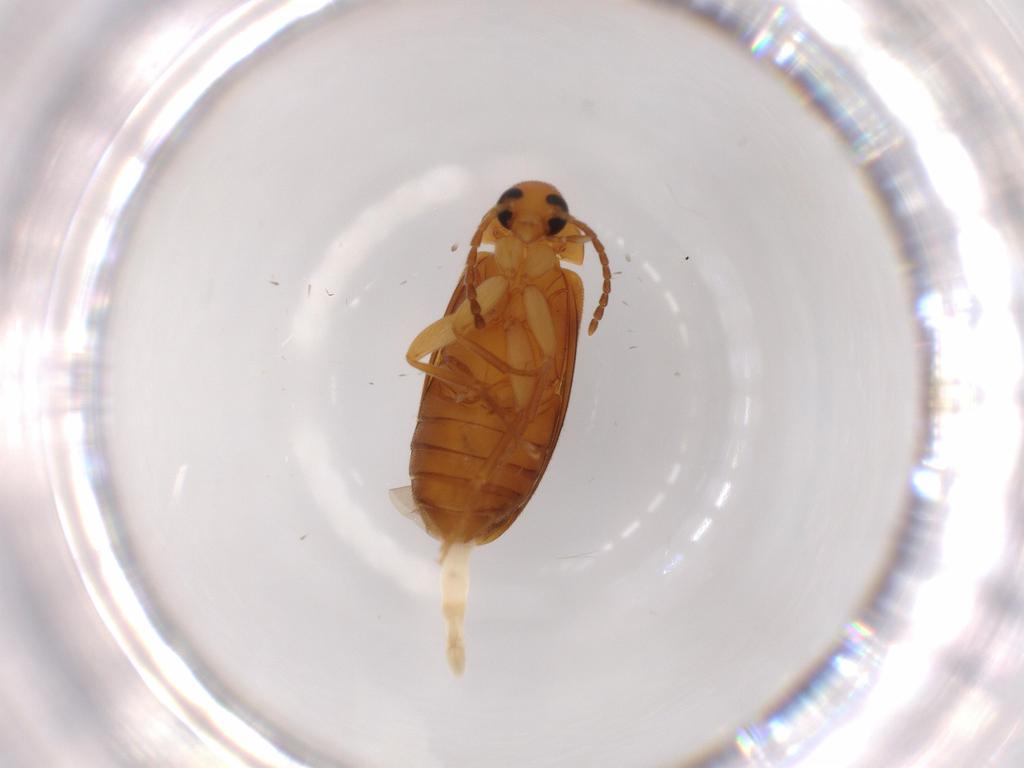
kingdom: Animalia
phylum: Arthropoda
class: Insecta
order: Coleoptera
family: Scraptiidae
